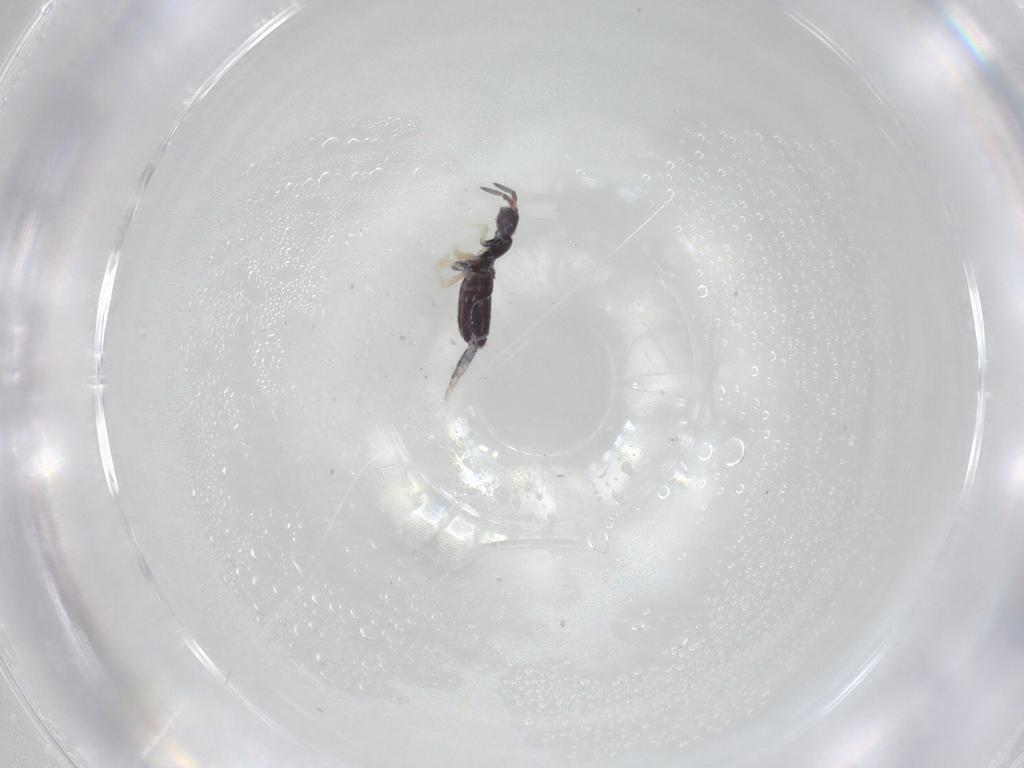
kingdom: Animalia
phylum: Arthropoda
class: Collembola
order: Entomobryomorpha
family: Entomobryidae
